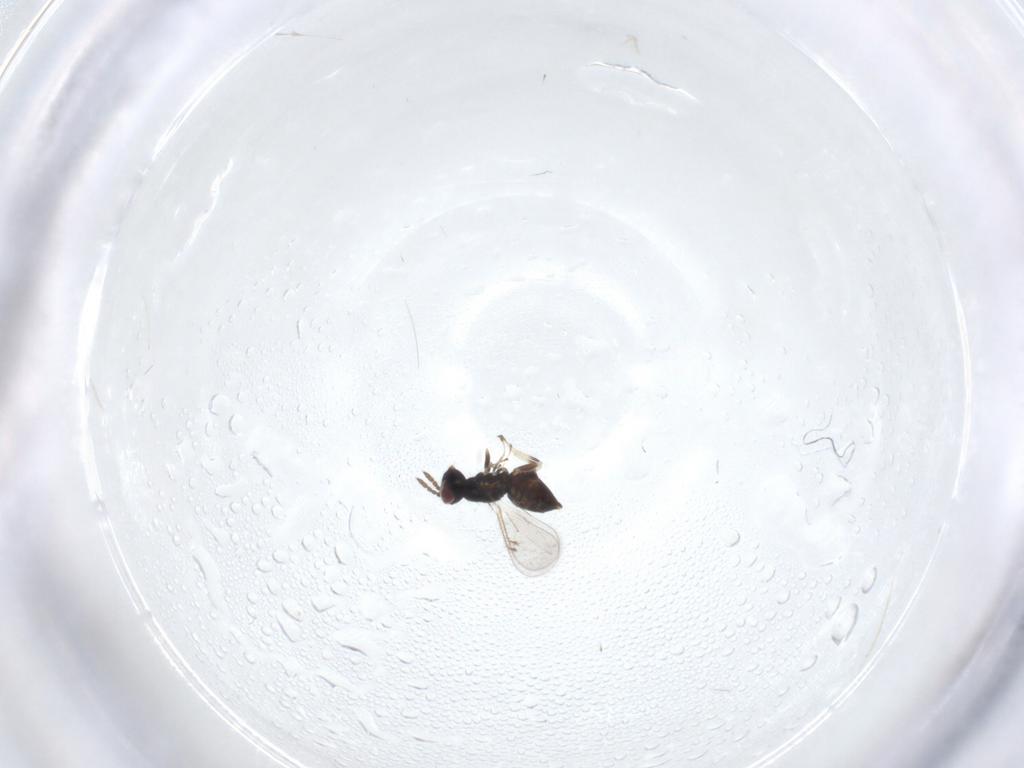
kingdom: Animalia
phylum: Arthropoda
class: Insecta
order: Hymenoptera
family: Eulophidae
